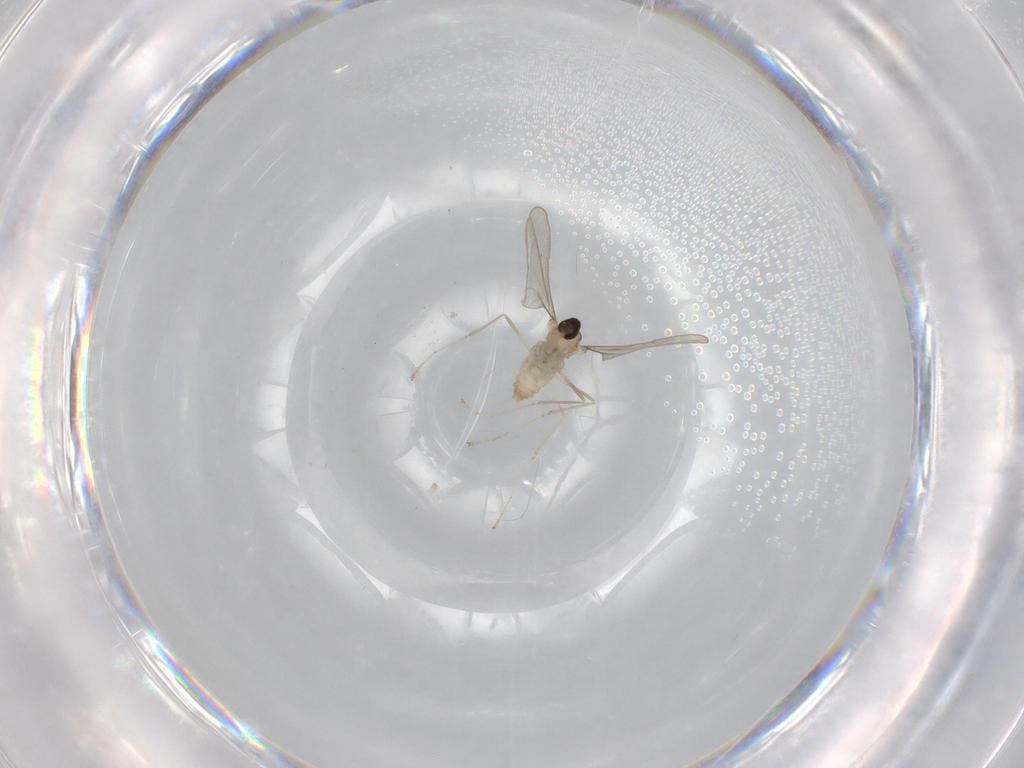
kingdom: Animalia
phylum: Arthropoda
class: Insecta
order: Diptera
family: Cecidomyiidae
